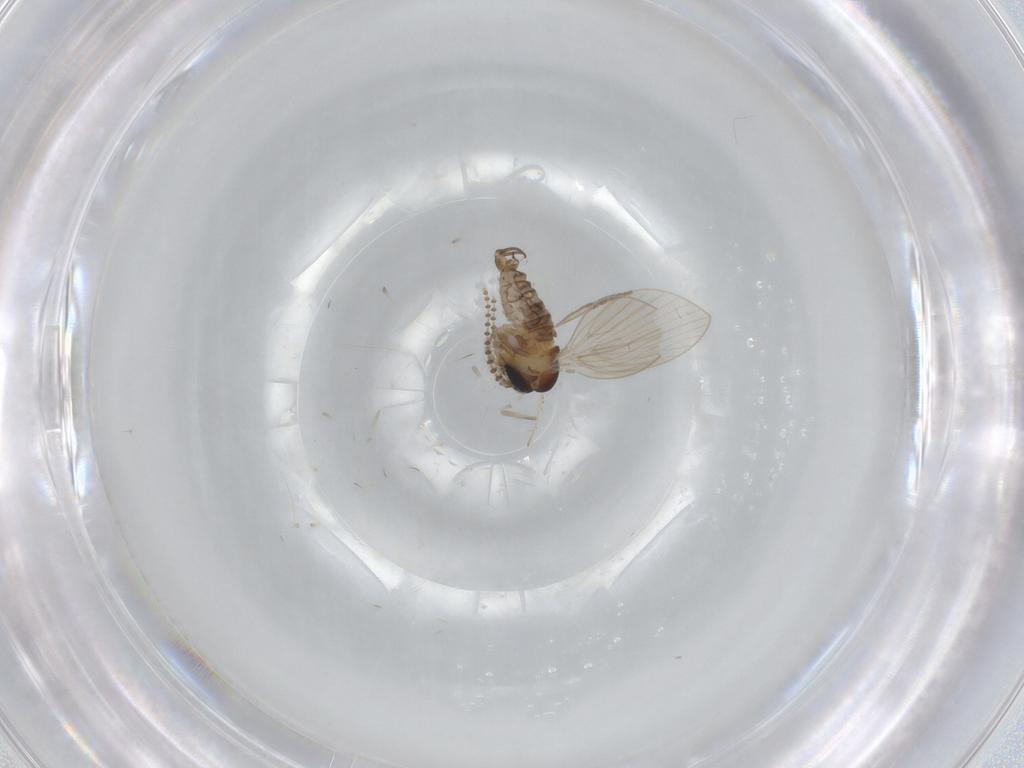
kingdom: Animalia
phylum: Arthropoda
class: Insecta
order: Diptera
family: Psychodidae
